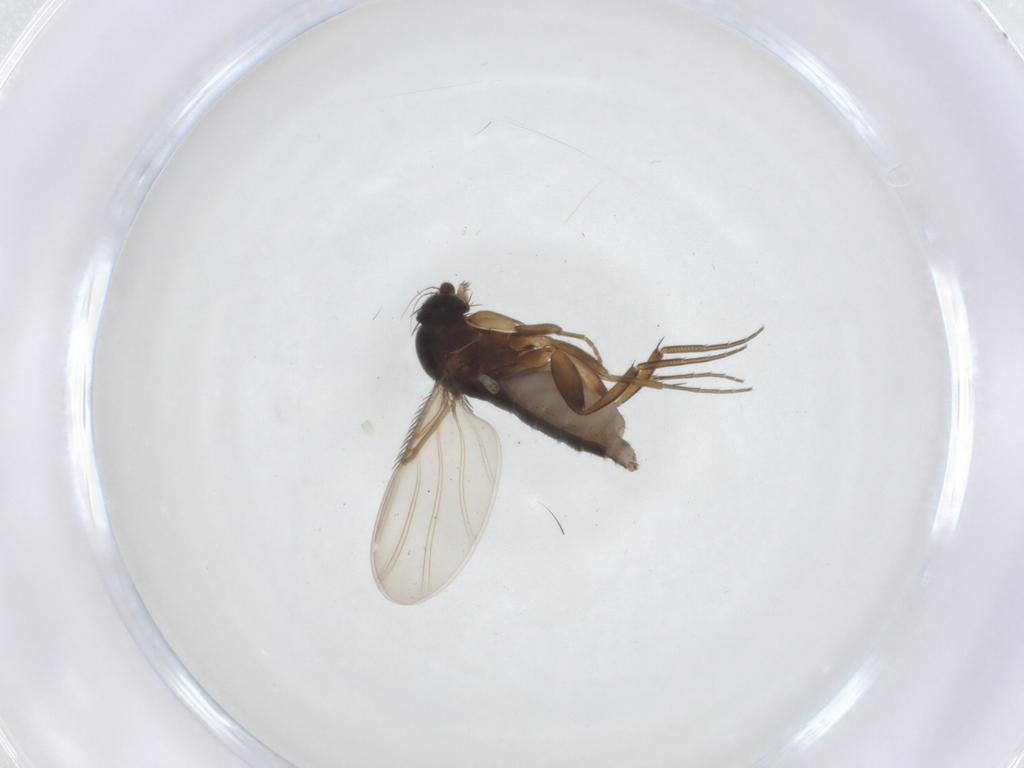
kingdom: Animalia
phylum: Arthropoda
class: Insecta
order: Diptera
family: Phoridae
